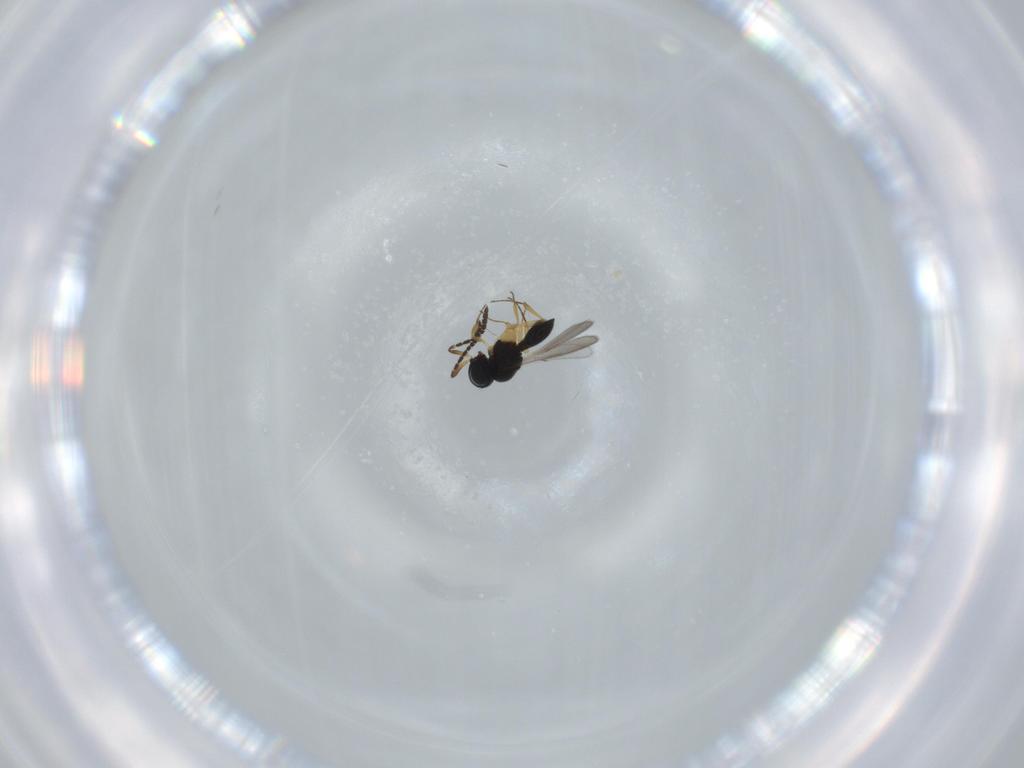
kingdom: Animalia
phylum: Arthropoda
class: Insecta
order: Hymenoptera
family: Scelionidae
